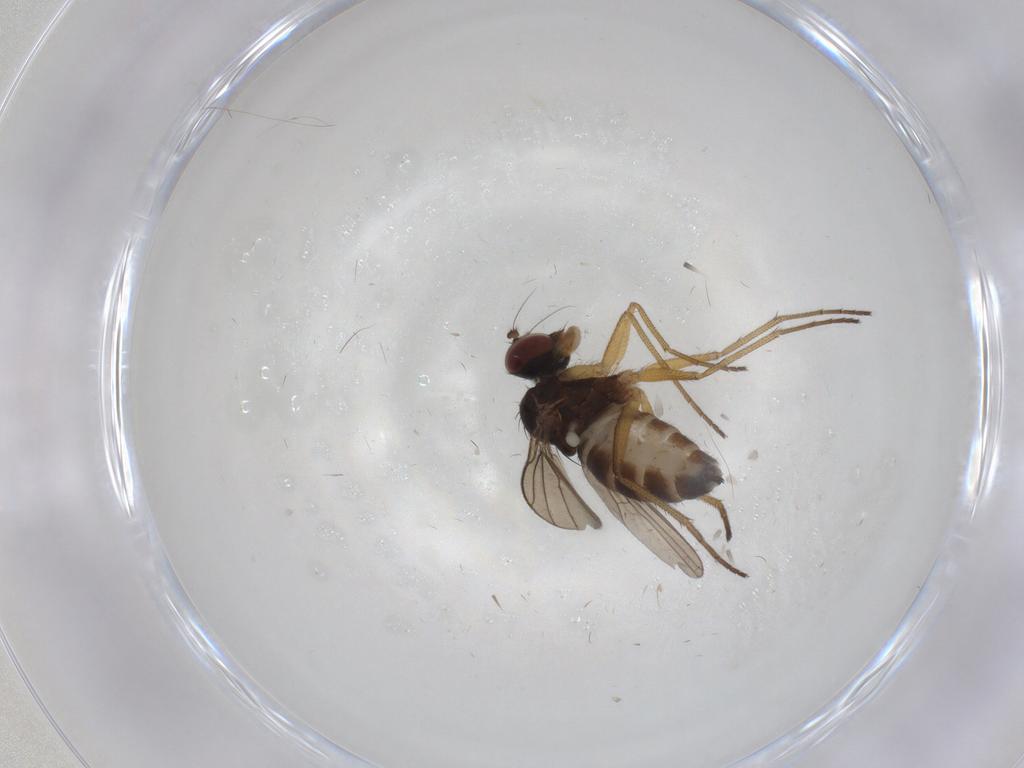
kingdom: Animalia
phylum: Arthropoda
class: Insecta
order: Diptera
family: Dolichopodidae
